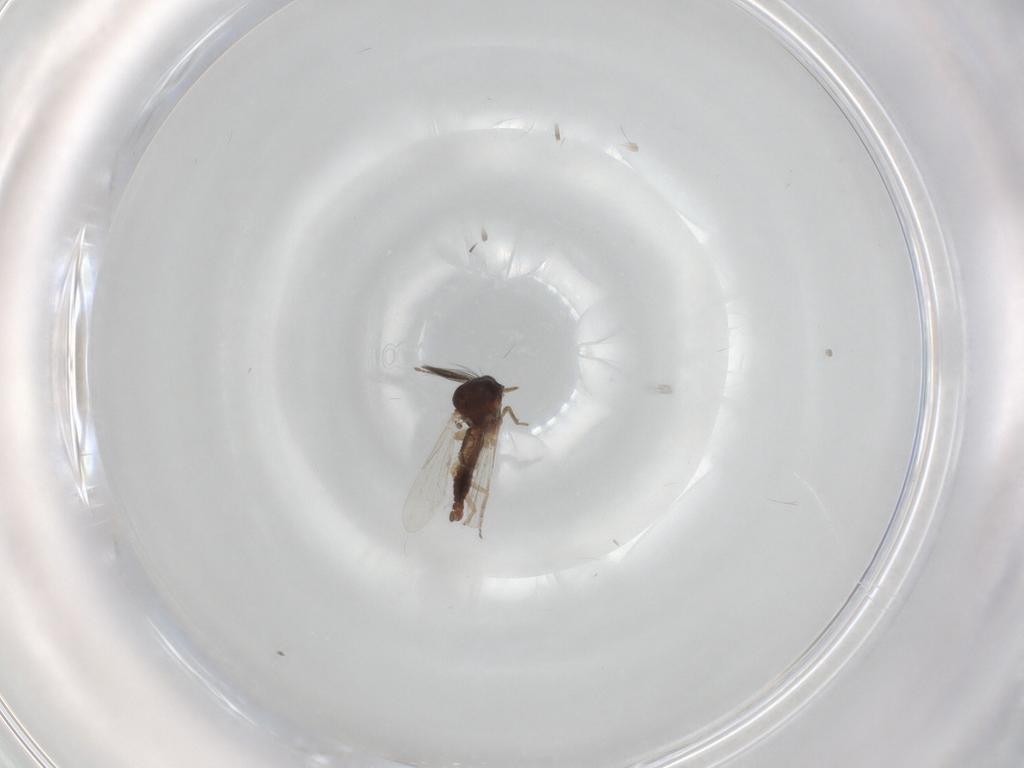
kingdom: Animalia
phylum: Arthropoda
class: Insecta
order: Diptera
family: Ceratopogonidae
